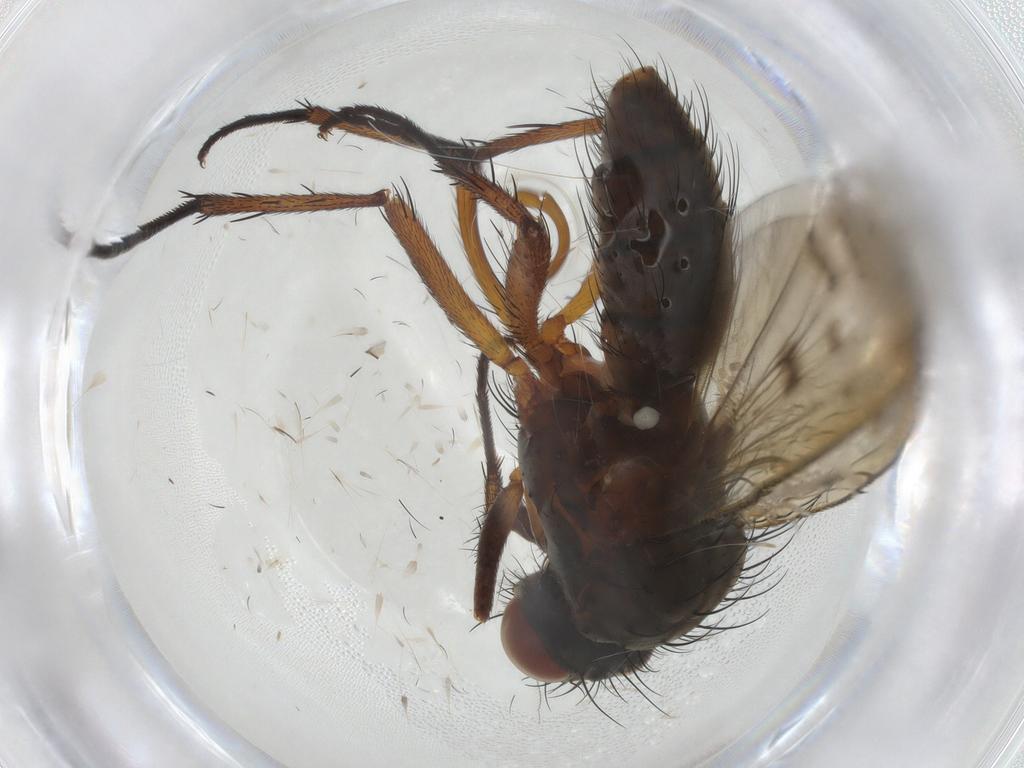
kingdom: Animalia
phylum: Arthropoda
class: Insecta
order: Diptera
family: Anthomyiidae
